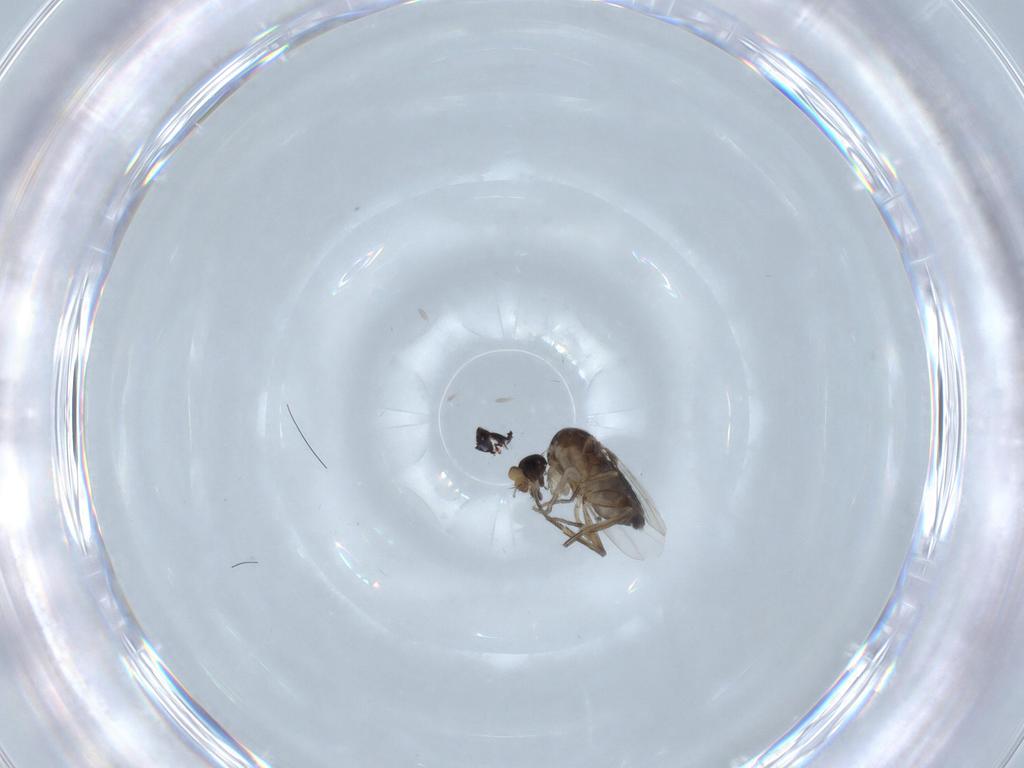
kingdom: Animalia
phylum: Arthropoda
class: Insecta
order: Diptera
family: Phoridae
